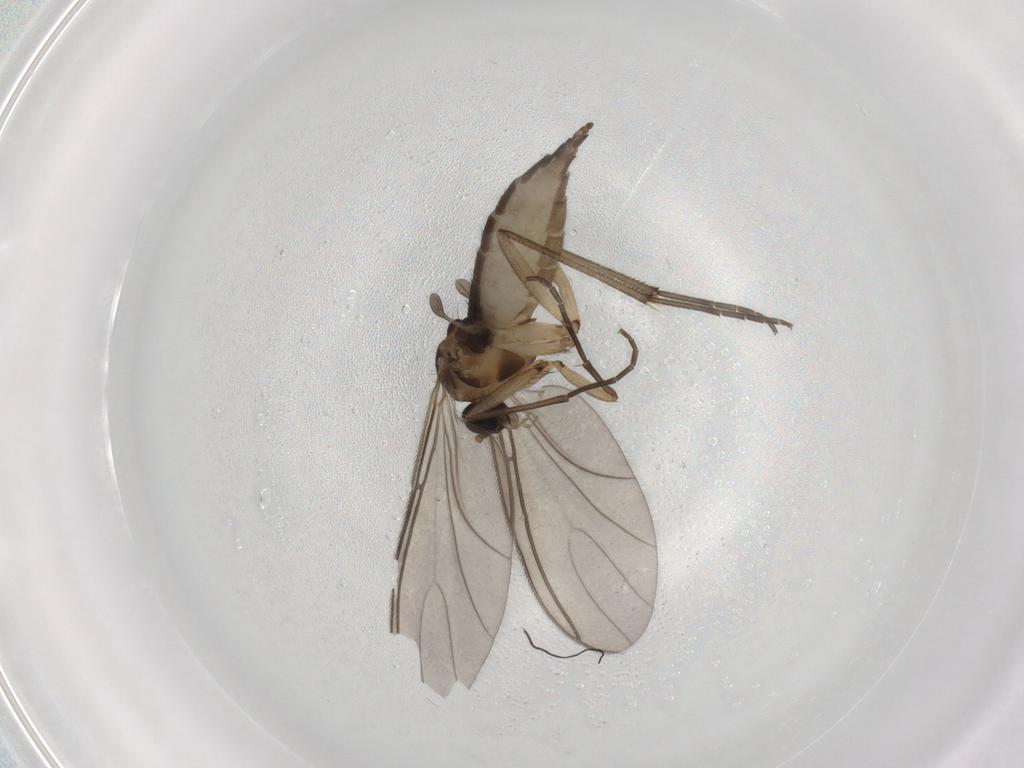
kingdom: Animalia
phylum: Arthropoda
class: Insecta
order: Diptera
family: Sciaridae
